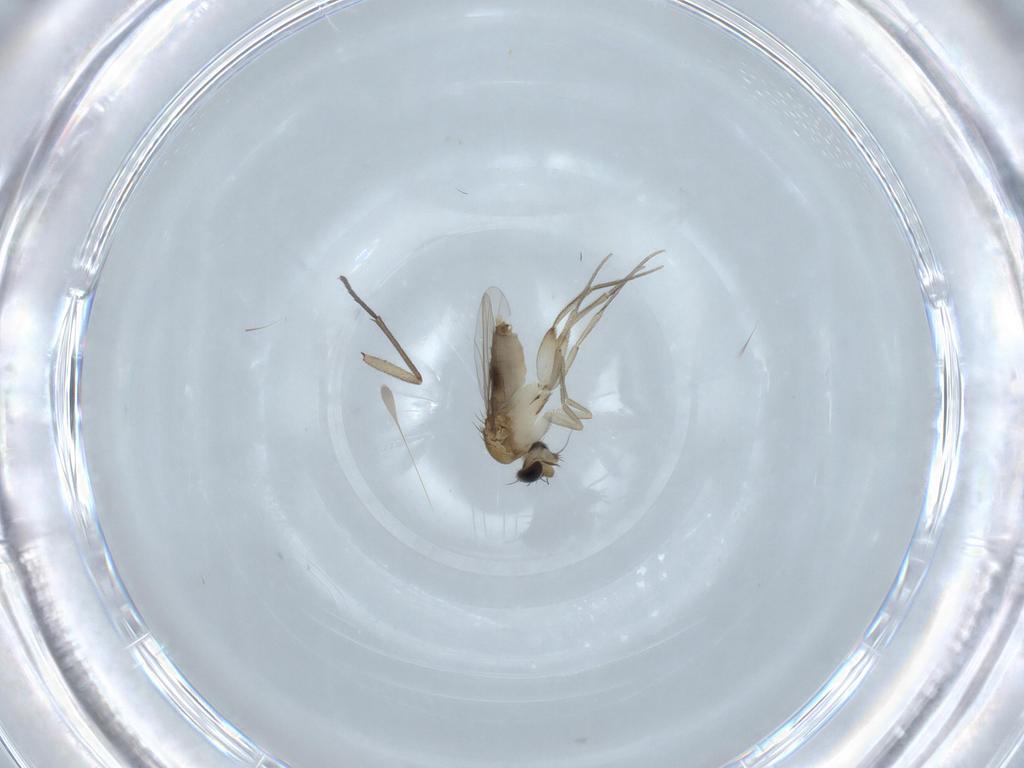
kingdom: Animalia
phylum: Arthropoda
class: Insecta
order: Diptera
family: Phoridae
